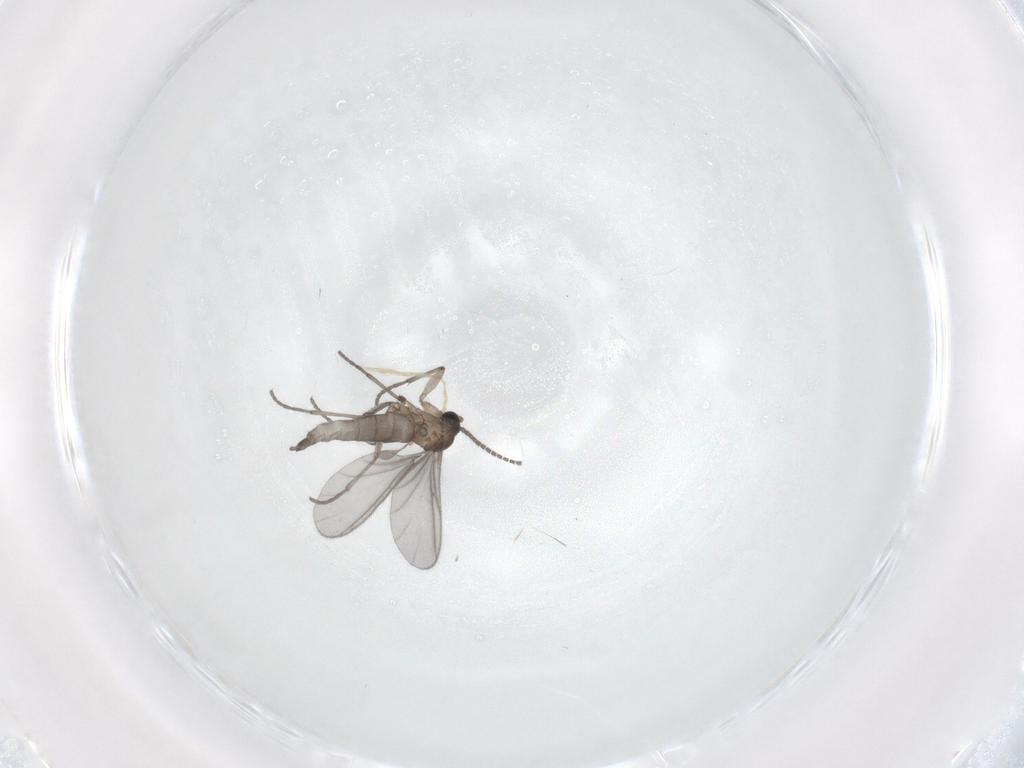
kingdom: Animalia
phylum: Arthropoda
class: Insecta
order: Diptera
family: Sciaridae
